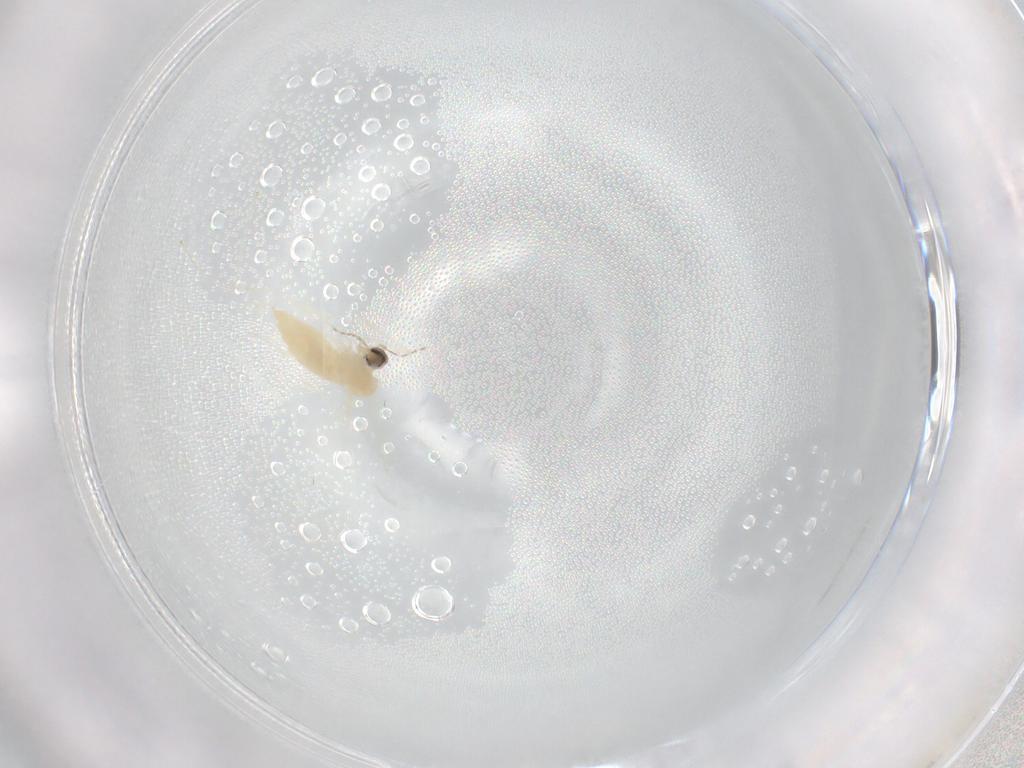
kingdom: Animalia
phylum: Arthropoda
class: Insecta
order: Diptera
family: Cecidomyiidae
